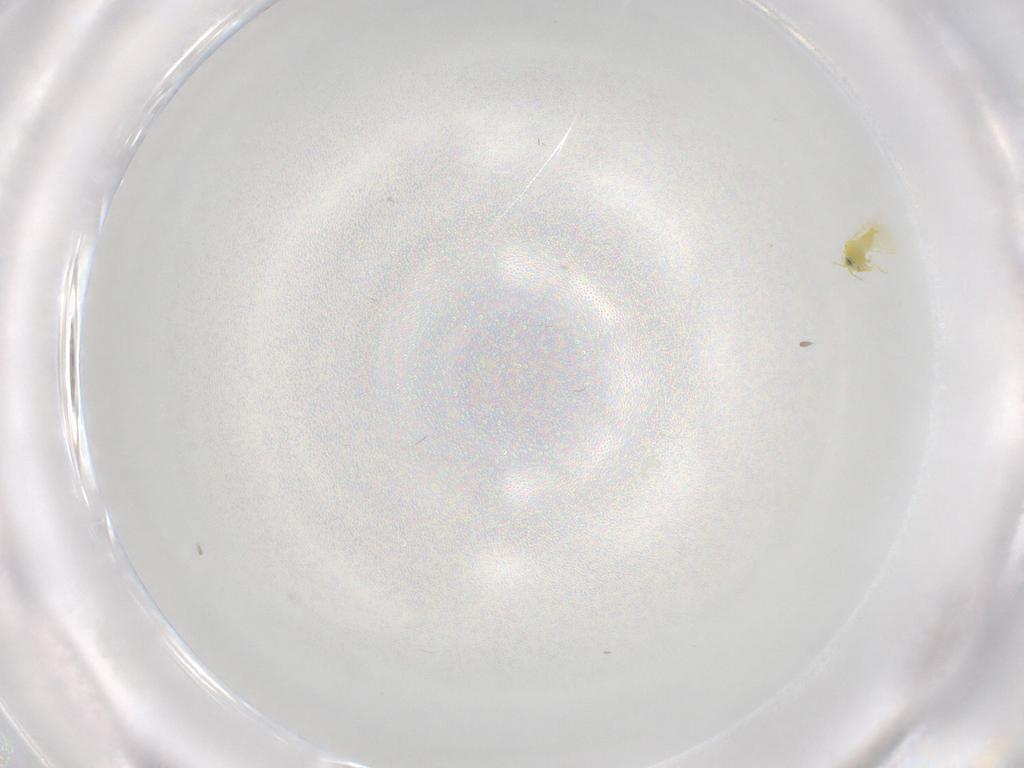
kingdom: Animalia
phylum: Arthropoda
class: Insecta
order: Hemiptera
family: Aleyrodidae
